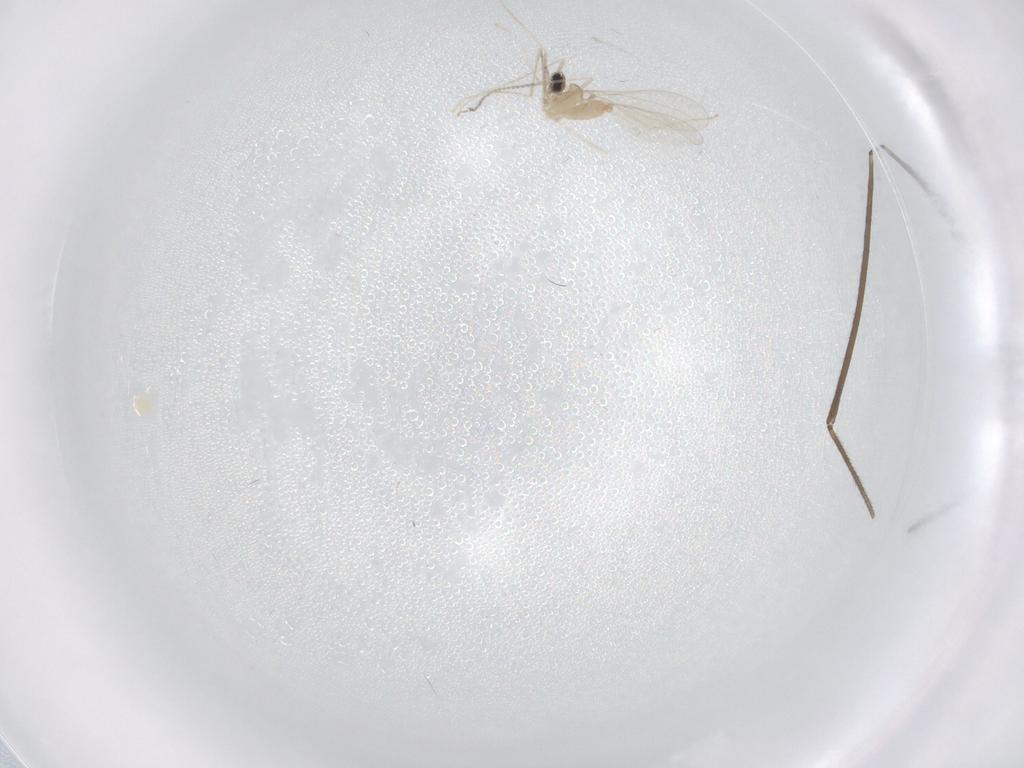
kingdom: Animalia
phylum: Arthropoda
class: Insecta
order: Diptera
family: Limoniidae
